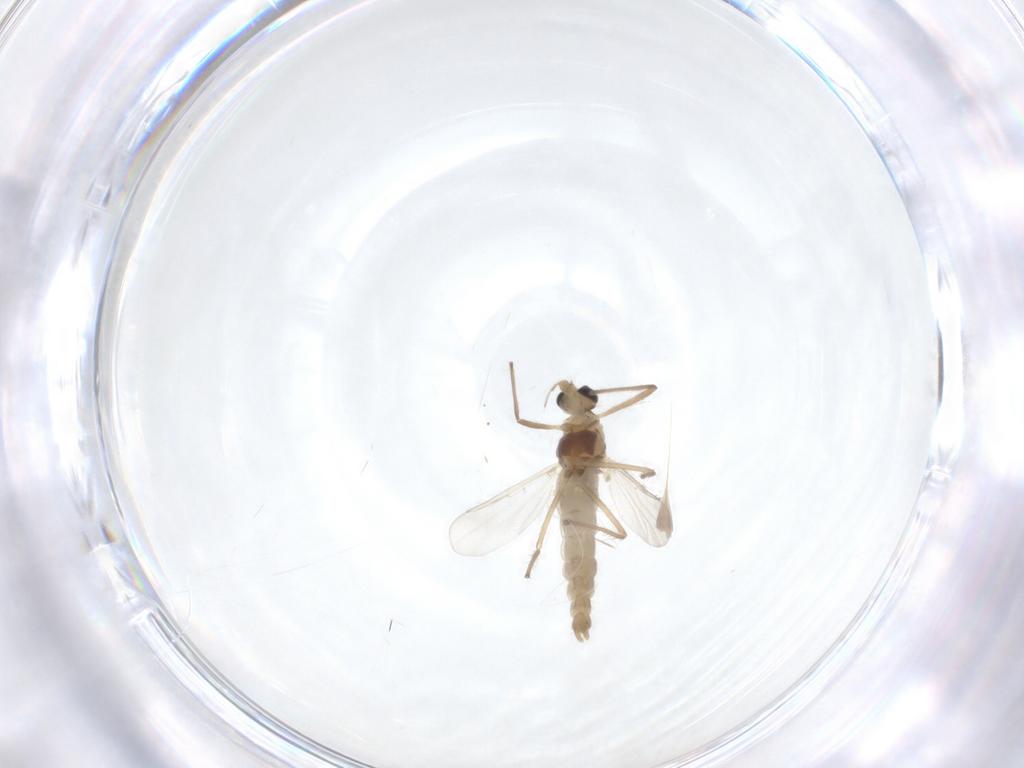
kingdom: Animalia
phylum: Arthropoda
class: Insecta
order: Diptera
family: Chironomidae
